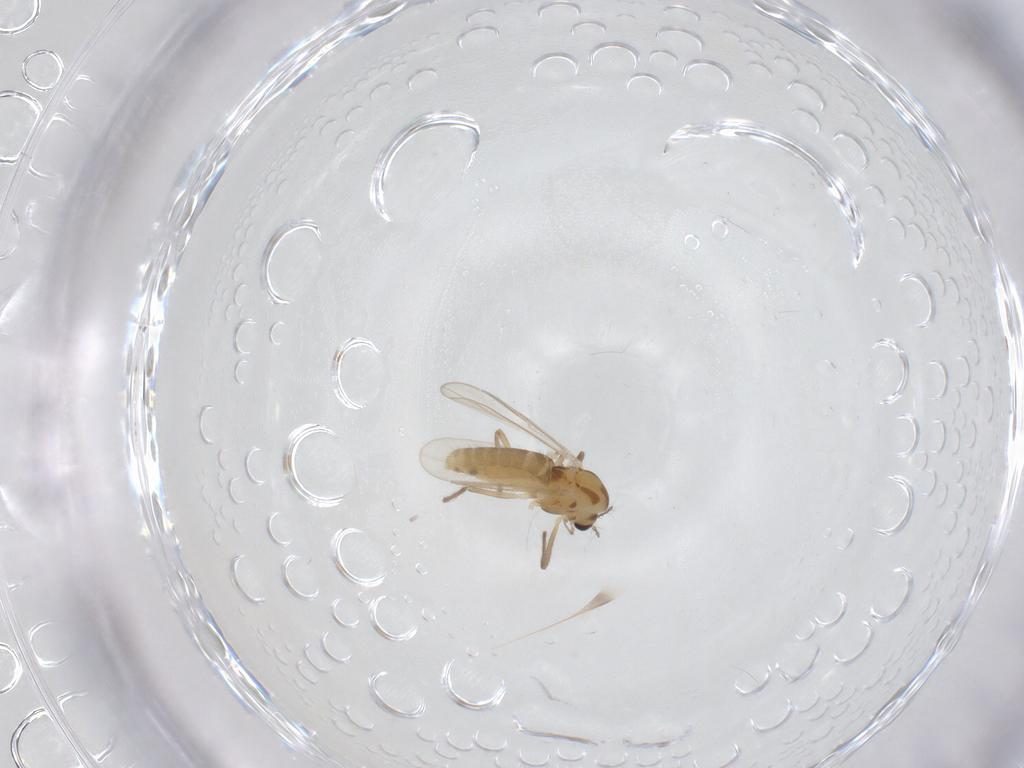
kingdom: Animalia
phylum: Arthropoda
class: Insecta
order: Diptera
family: Chironomidae
